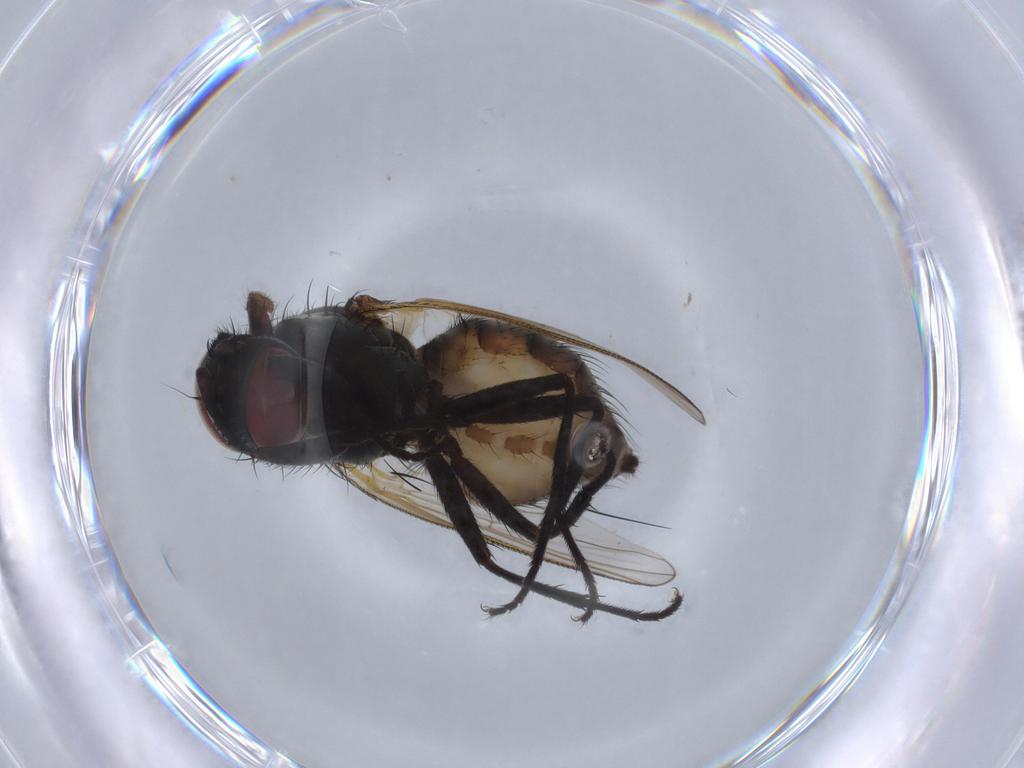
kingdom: Animalia
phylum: Arthropoda
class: Insecta
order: Diptera
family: Muscidae
